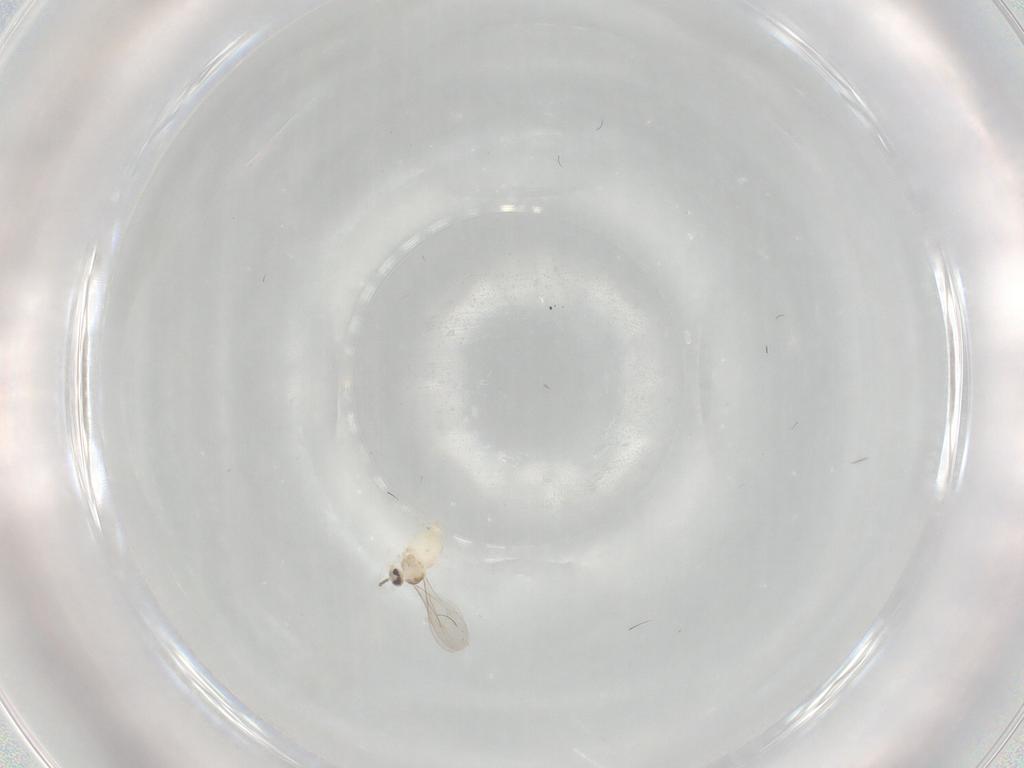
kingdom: Animalia
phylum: Arthropoda
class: Insecta
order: Diptera
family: Cecidomyiidae
